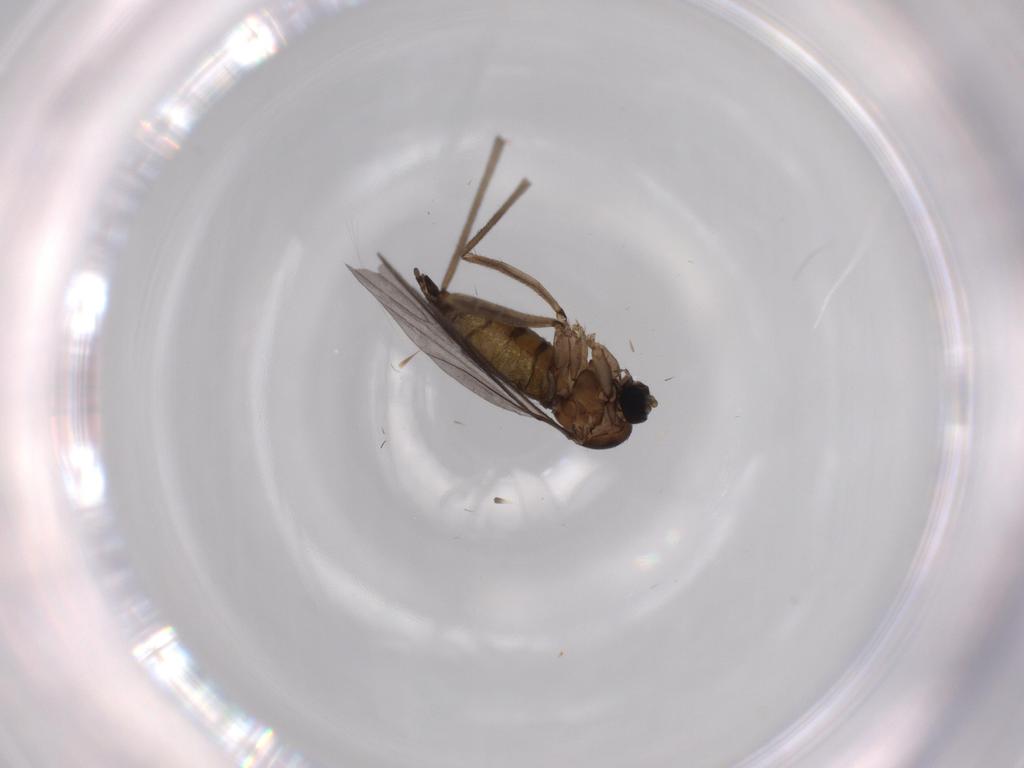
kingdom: Animalia
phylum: Arthropoda
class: Insecta
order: Diptera
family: Sciaridae
